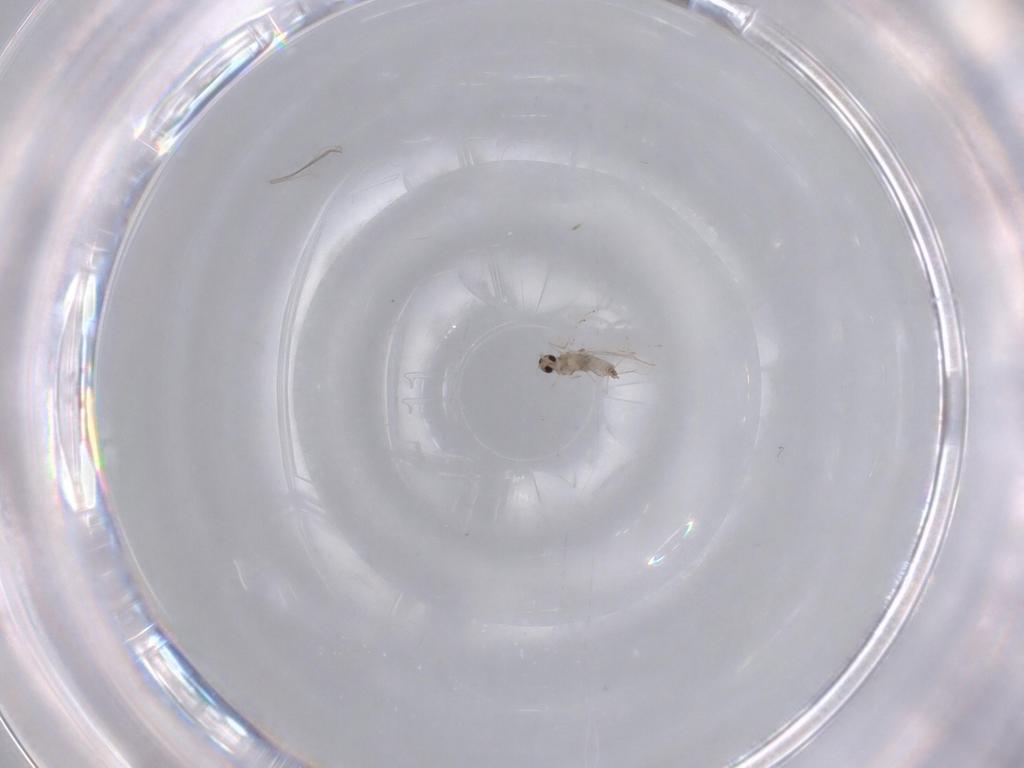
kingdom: Animalia
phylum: Arthropoda
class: Insecta
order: Diptera
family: Cecidomyiidae
